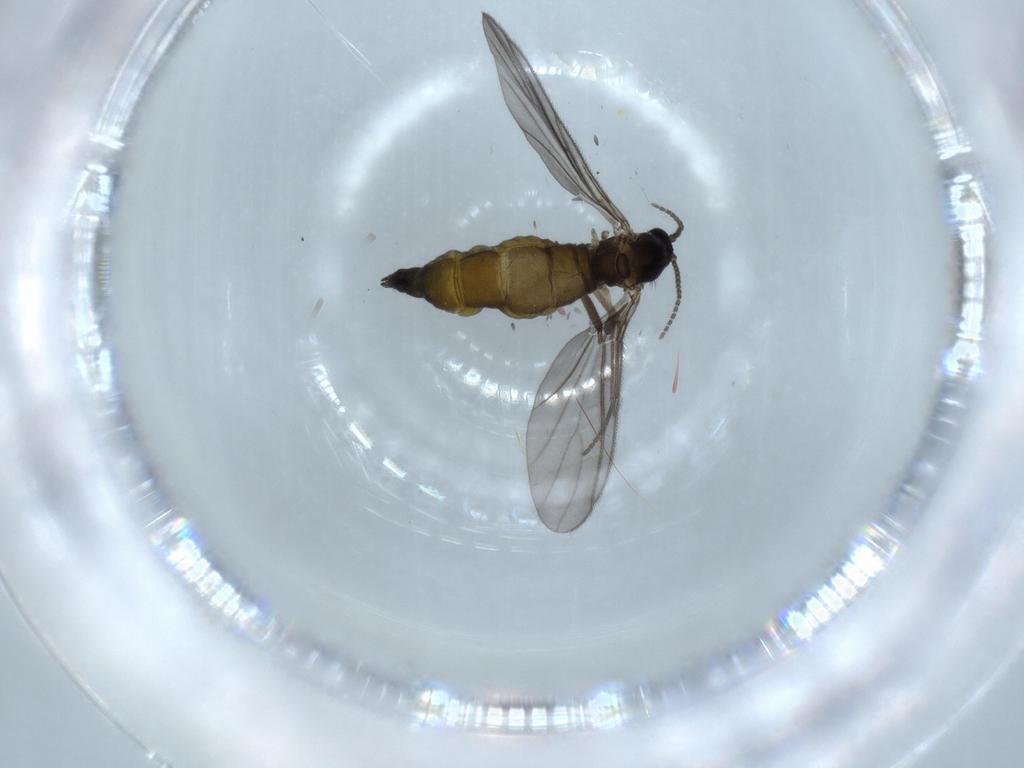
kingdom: Animalia
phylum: Arthropoda
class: Insecta
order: Diptera
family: Sciaridae
